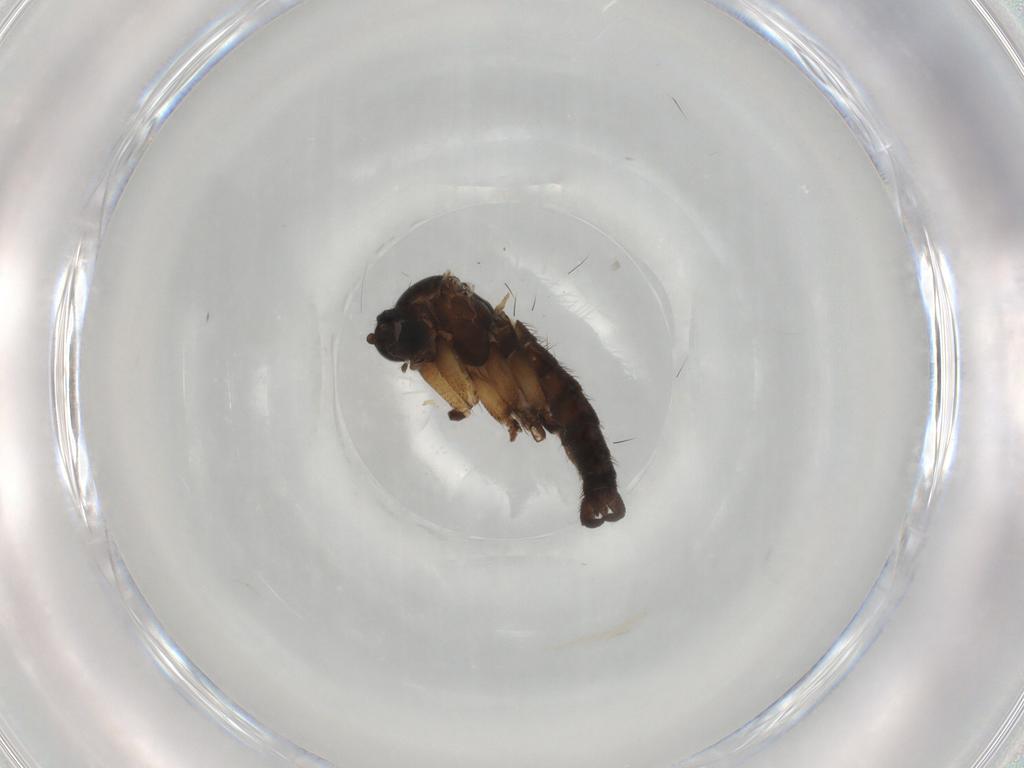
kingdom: Animalia
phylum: Arthropoda
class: Insecta
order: Diptera
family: Sciaridae
